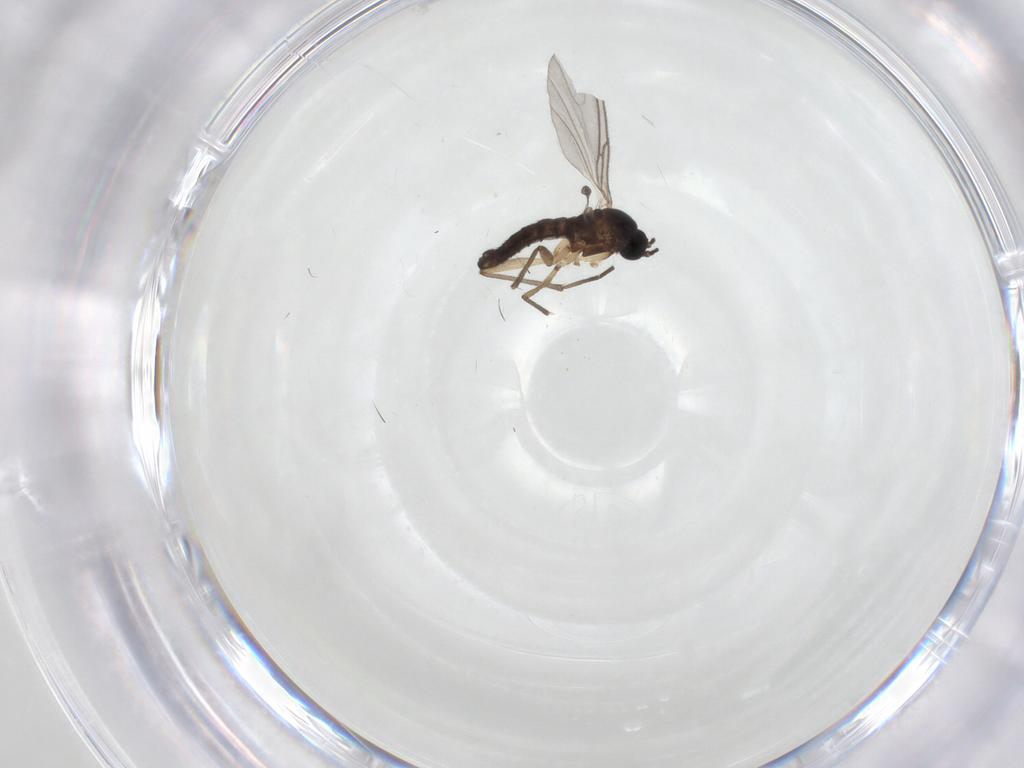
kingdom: Animalia
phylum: Arthropoda
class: Insecta
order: Diptera
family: Sciaridae
